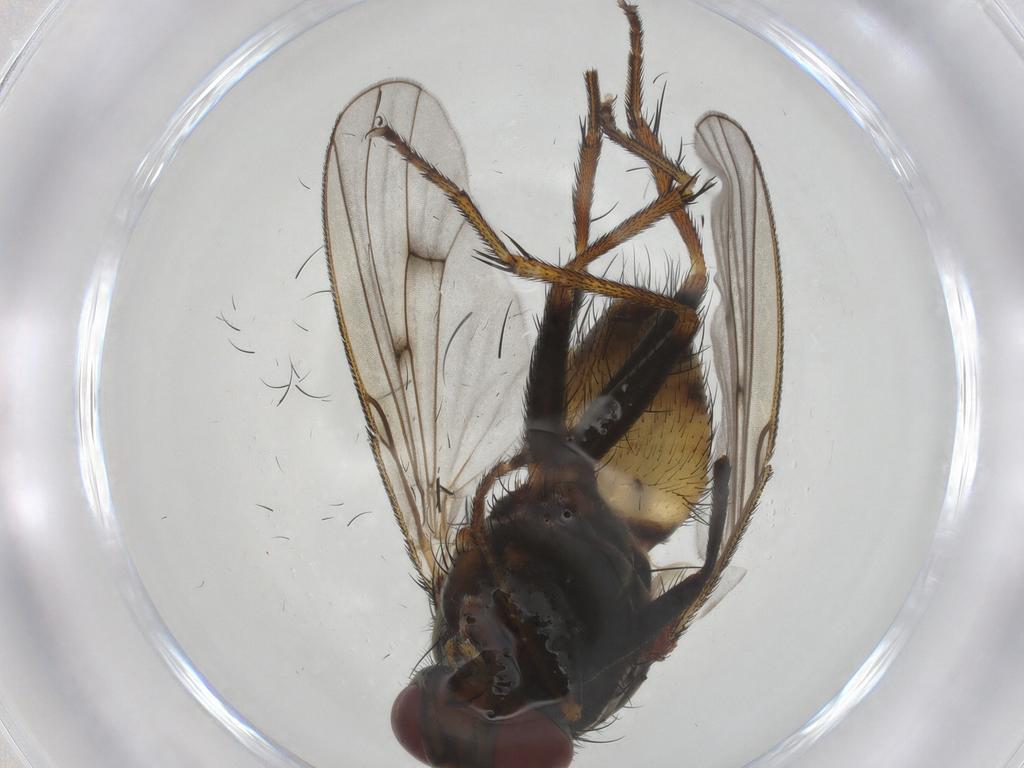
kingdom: Animalia
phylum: Arthropoda
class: Insecta
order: Diptera
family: Muscidae
